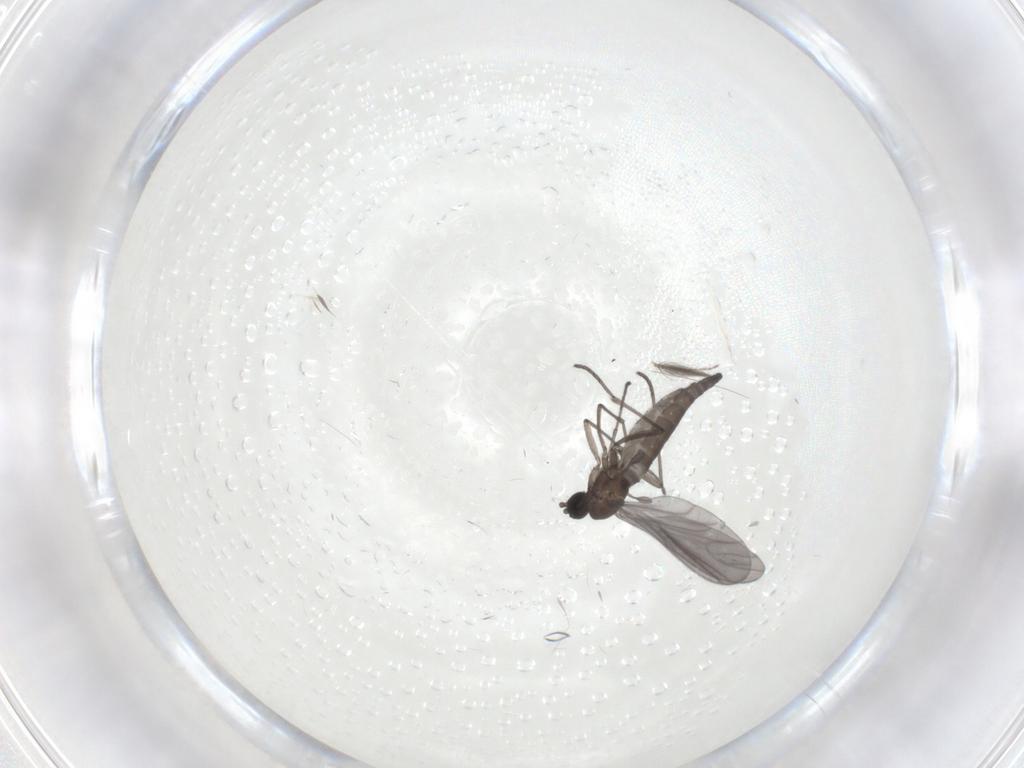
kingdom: Animalia
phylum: Arthropoda
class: Insecta
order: Diptera
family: Sciaridae
